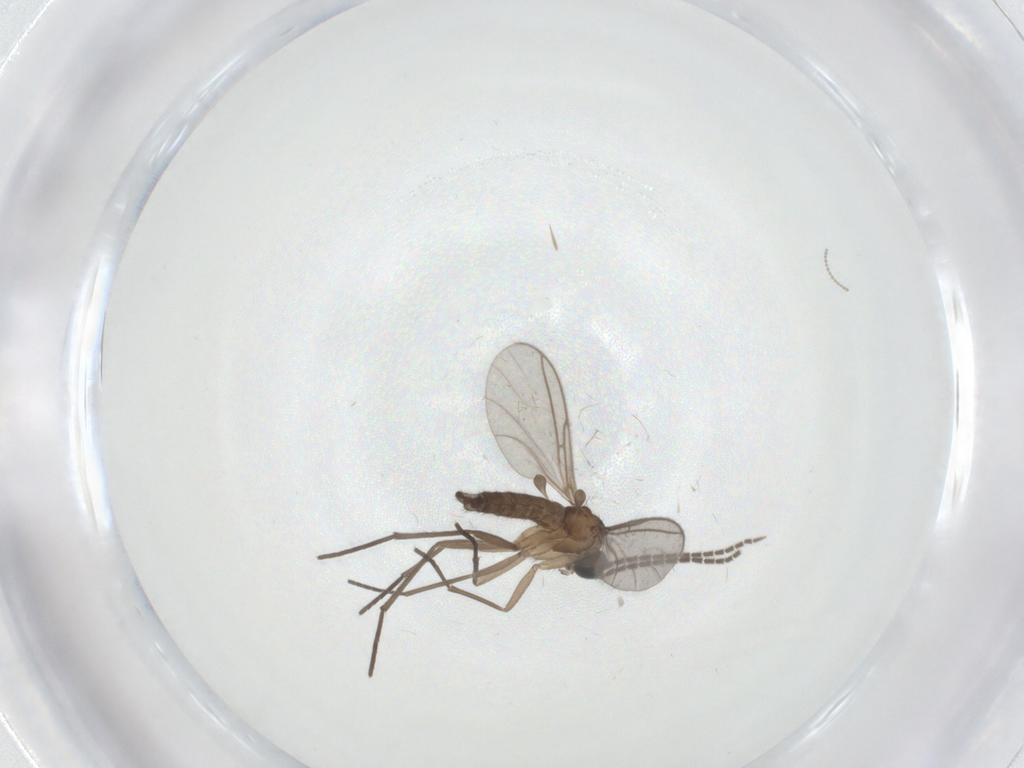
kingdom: Animalia
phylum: Arthropoda
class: Insecta
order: Diptera
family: Sciaridae
